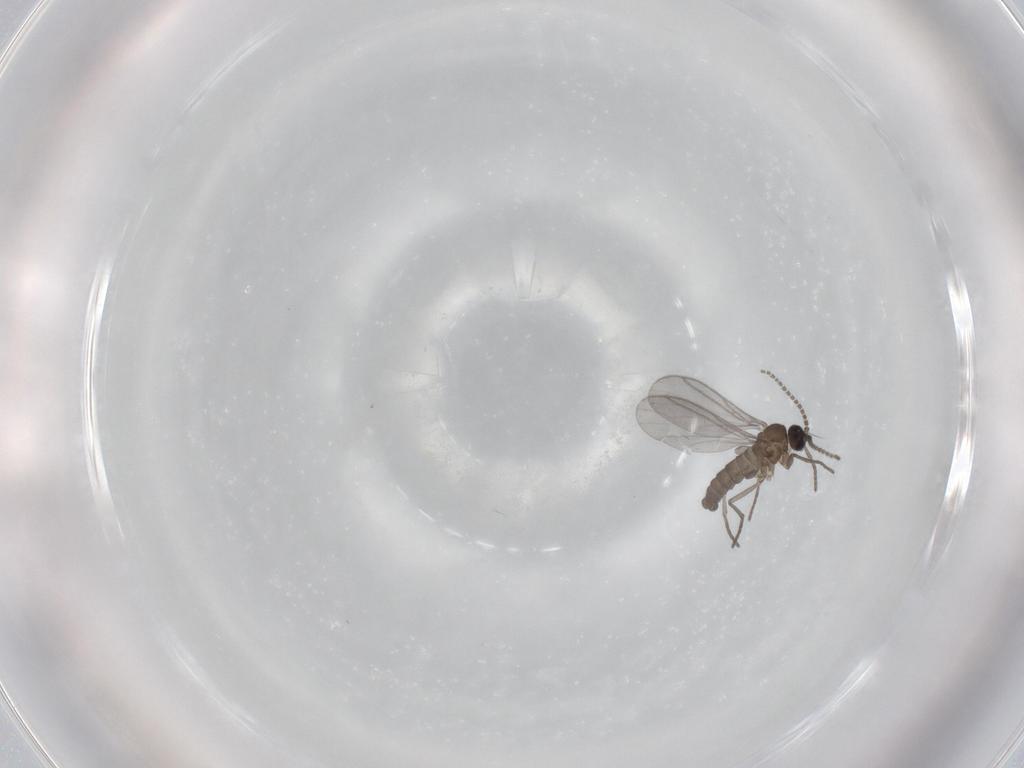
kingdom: Animalia
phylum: Arthropoda
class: Insecta
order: Diptera
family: Sciaridae
